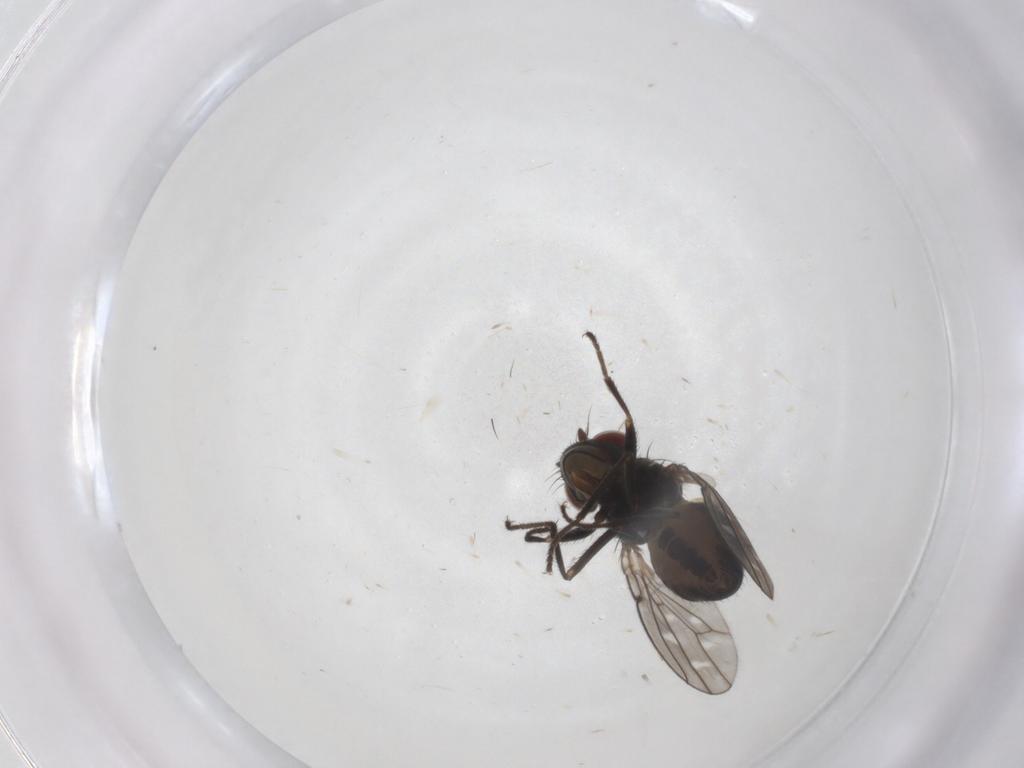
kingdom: Animalia
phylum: Arthropoda
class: Insecta
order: Diptera
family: Ephydridae
